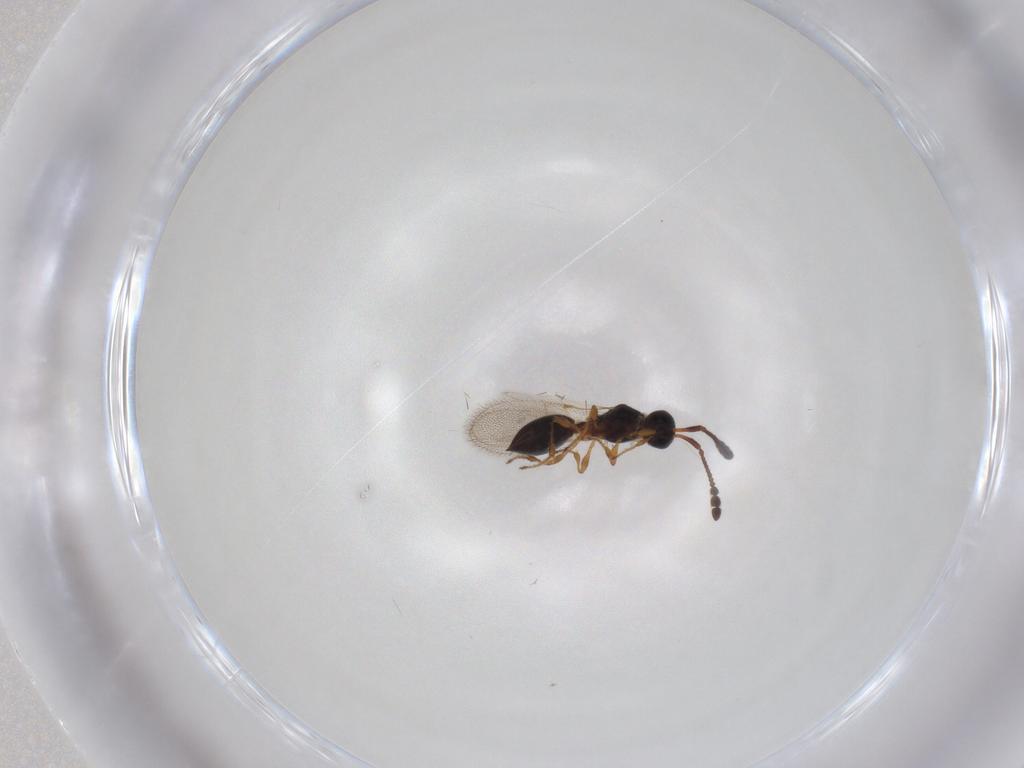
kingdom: Animalia
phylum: Arthropoda
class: Insecta
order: Hymenoptera
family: Diapriidae
